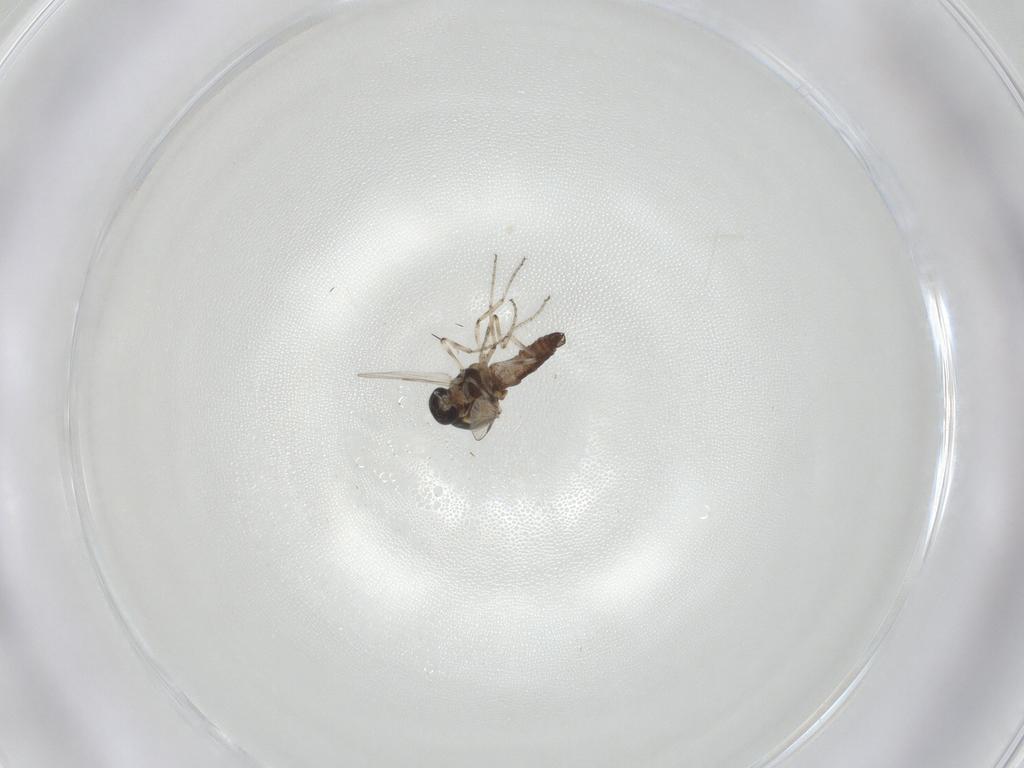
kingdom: Animalia
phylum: Arthropoda
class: Insecta
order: Diptera
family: Ceratopogonidae
